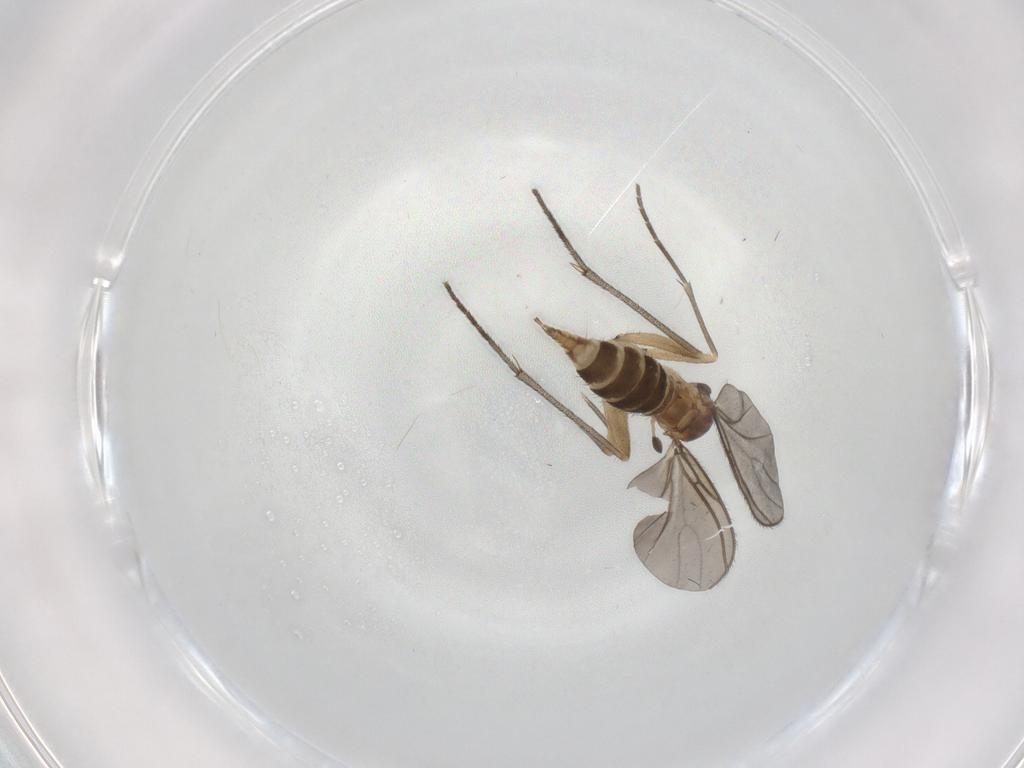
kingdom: Animalia
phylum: Arthropoda
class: Insecta
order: Diptera
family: Sciaridae
